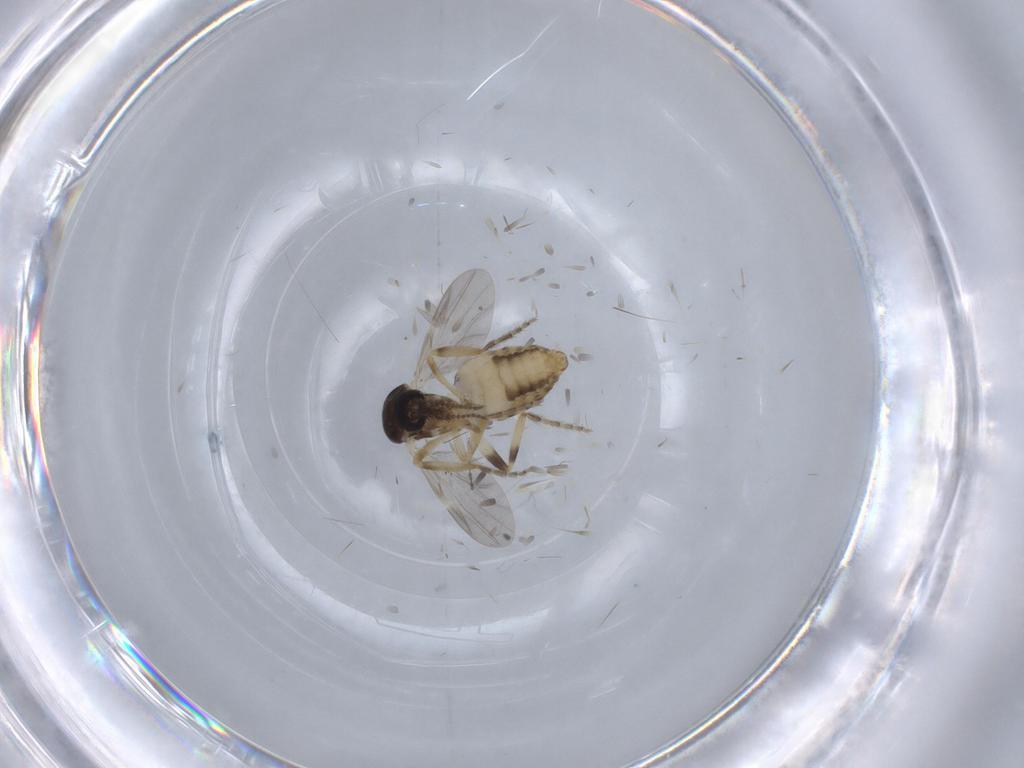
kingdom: Animalia
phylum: Arthropoda
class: Insecta
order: Diptera
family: Ceratopogonidae
